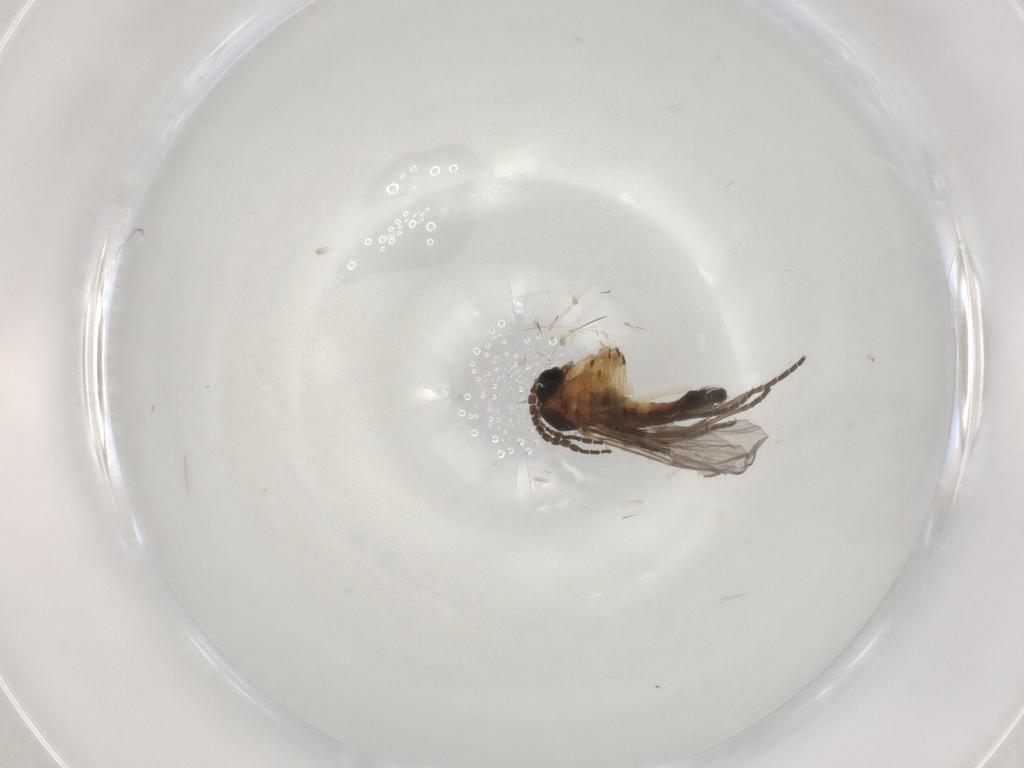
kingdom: Animalia
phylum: Arthropoda
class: Insecta
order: Diptera
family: Sciaridae
